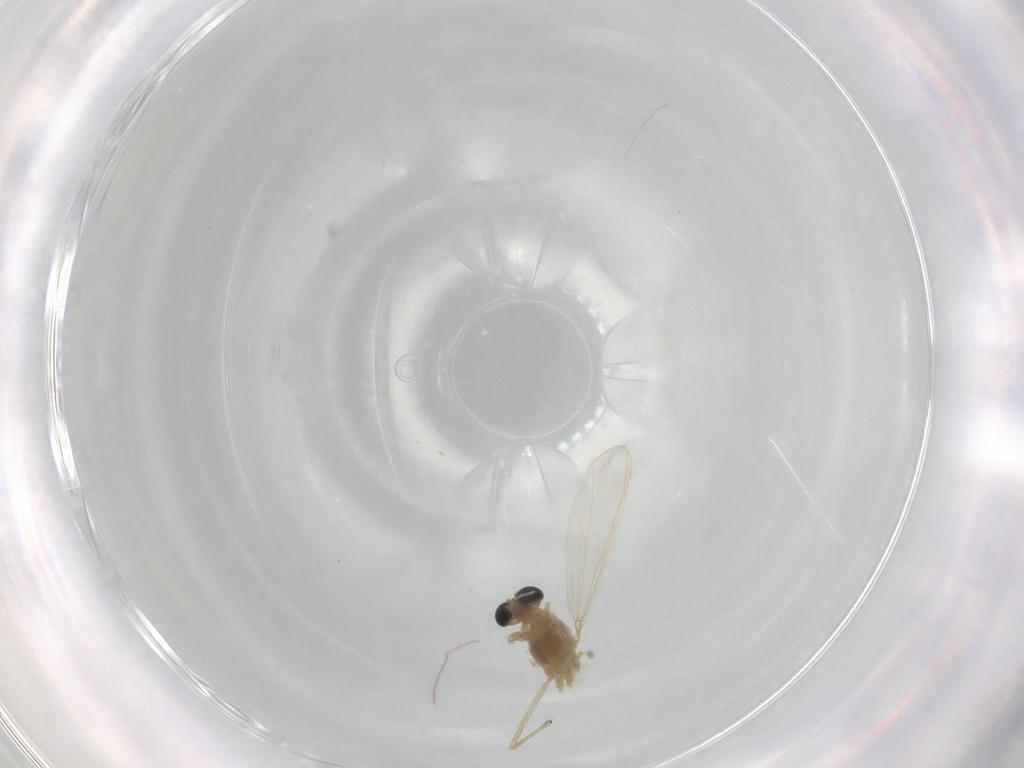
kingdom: Animalia
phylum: Arthropoda
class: Insecta
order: Diptera
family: Chironomidae
